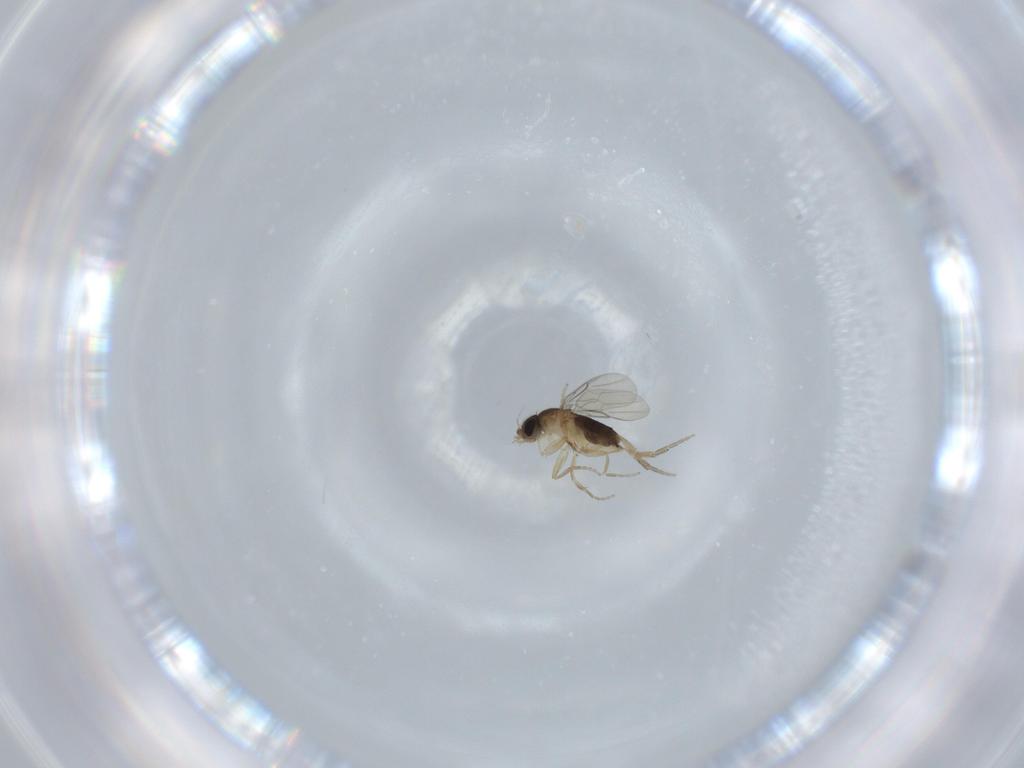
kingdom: Animalia
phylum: Arthropoda
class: Insecta
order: Diptera
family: Phoridae
